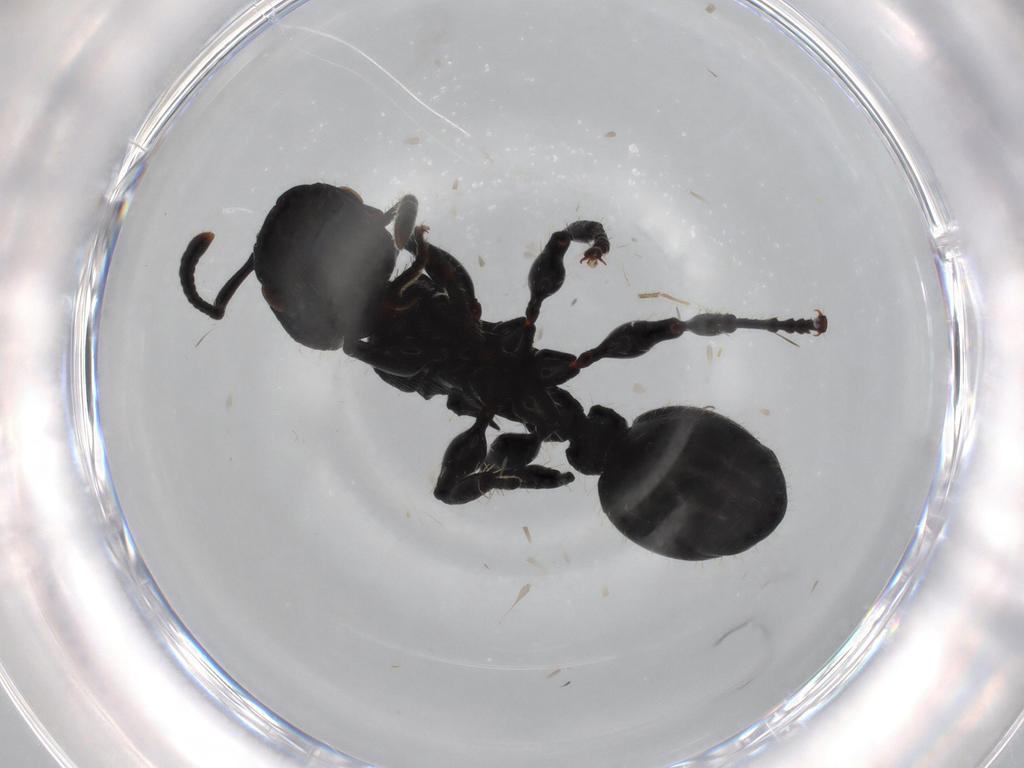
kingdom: Animalia
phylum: Arthropoda
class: Insecta
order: Hymenoptera
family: Formicidae
